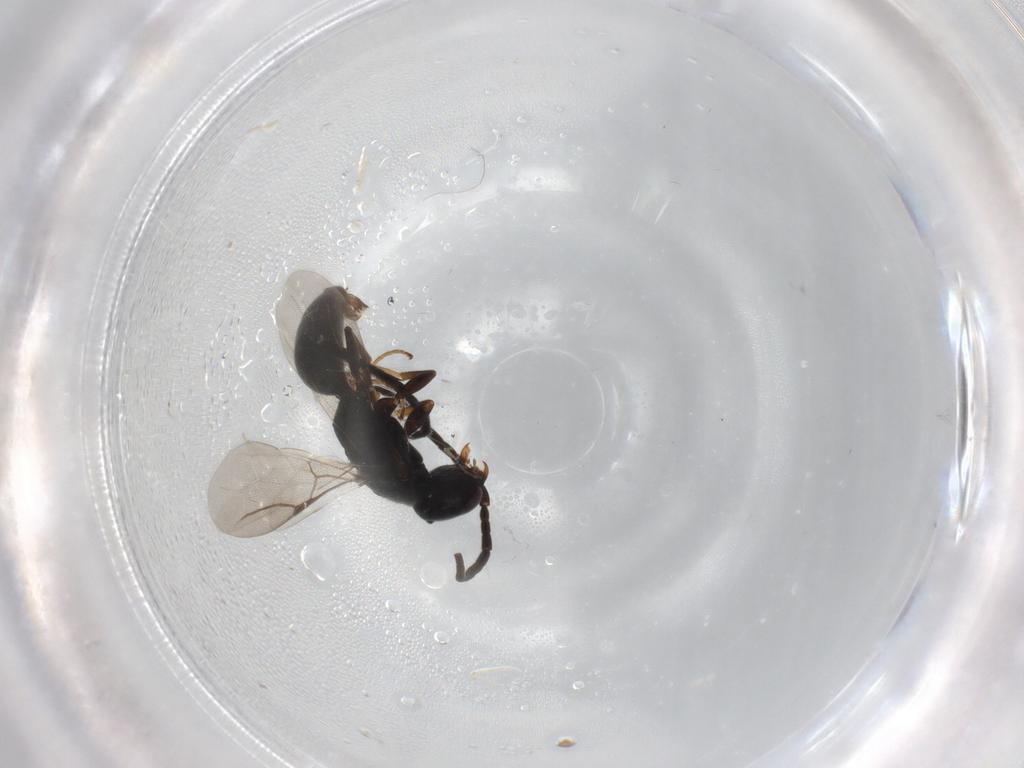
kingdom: Animalia
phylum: Arthropoda
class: Insecta
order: Hymenoptera
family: Bethylidae
